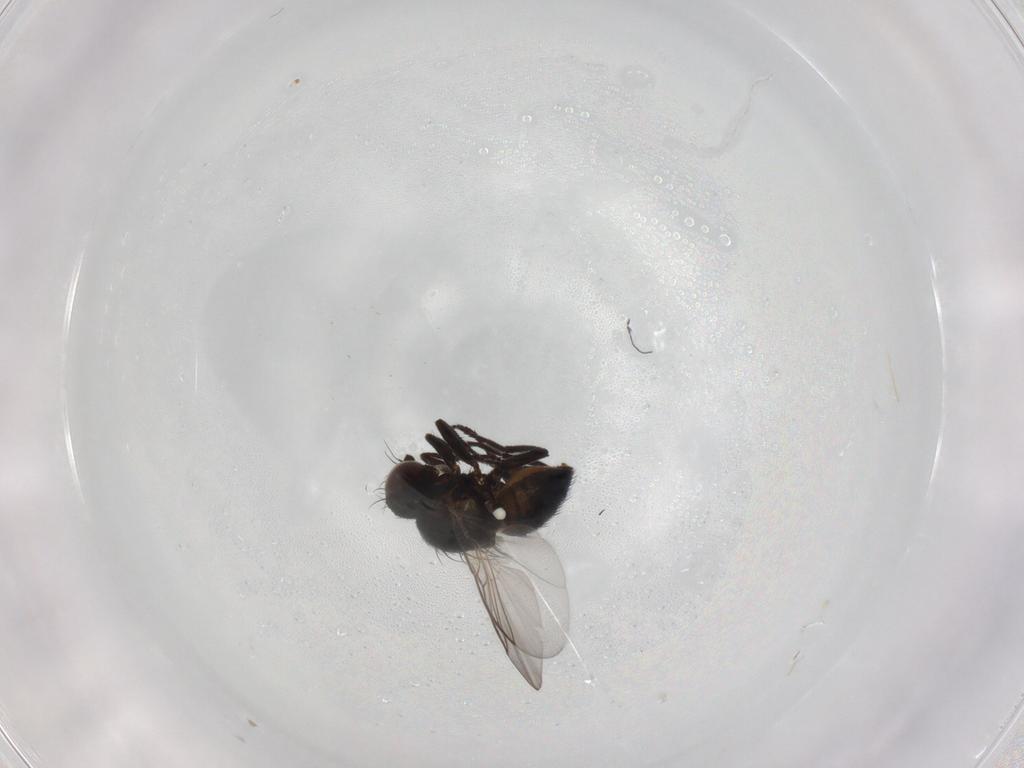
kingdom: Animalia
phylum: Arthropoda
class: Insecta
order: Diptera
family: Agromyzidae
